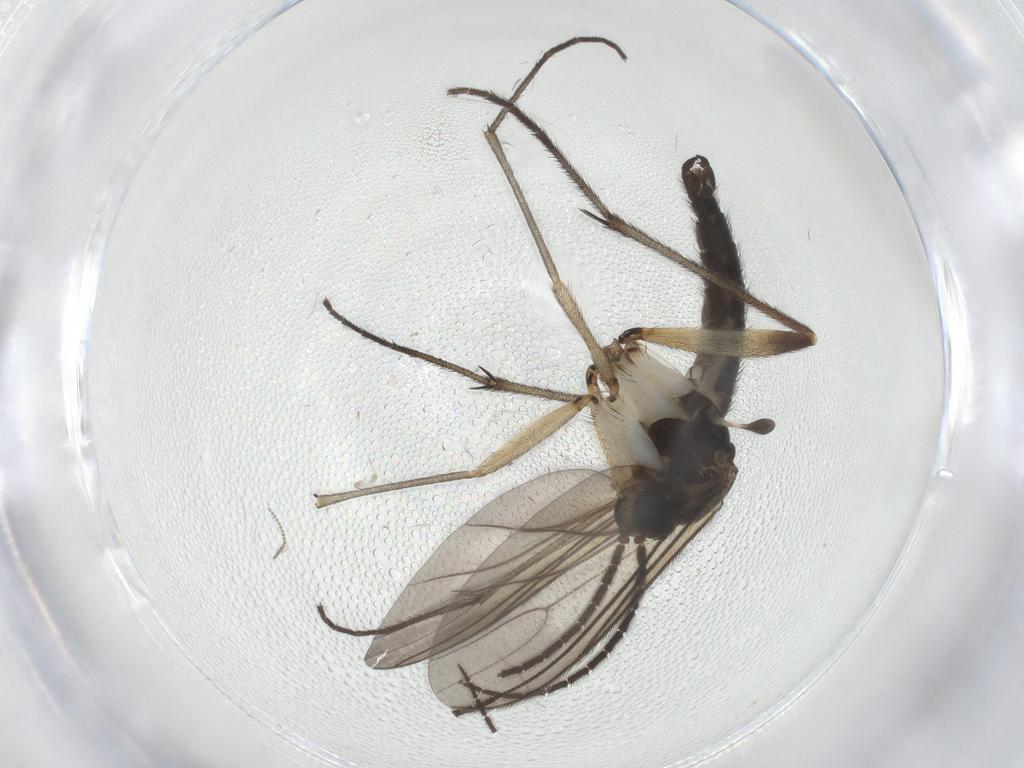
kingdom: Animalia
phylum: Arthropoda
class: Insecta
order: Diptera
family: Sciaridae
